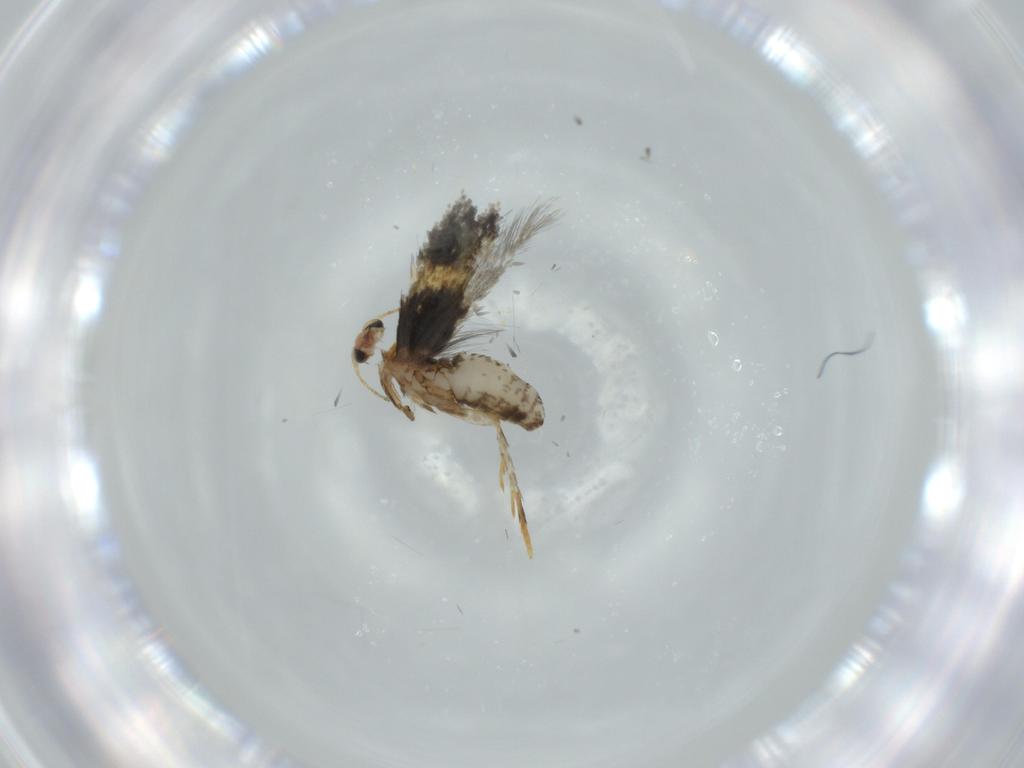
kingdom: Animalia
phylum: Arthropoda
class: Insecta
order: Lepidoptera
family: Nepticulidae
